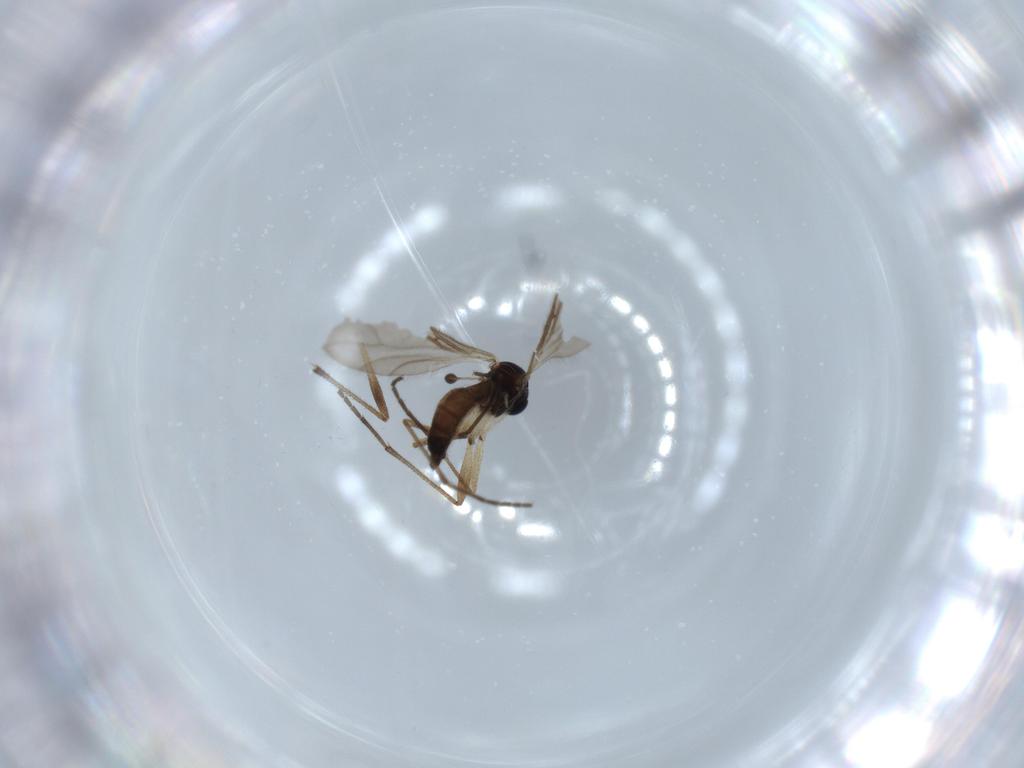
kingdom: Animalia
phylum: Arthropoda
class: Insecta
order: Diptera
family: Sciaridae
